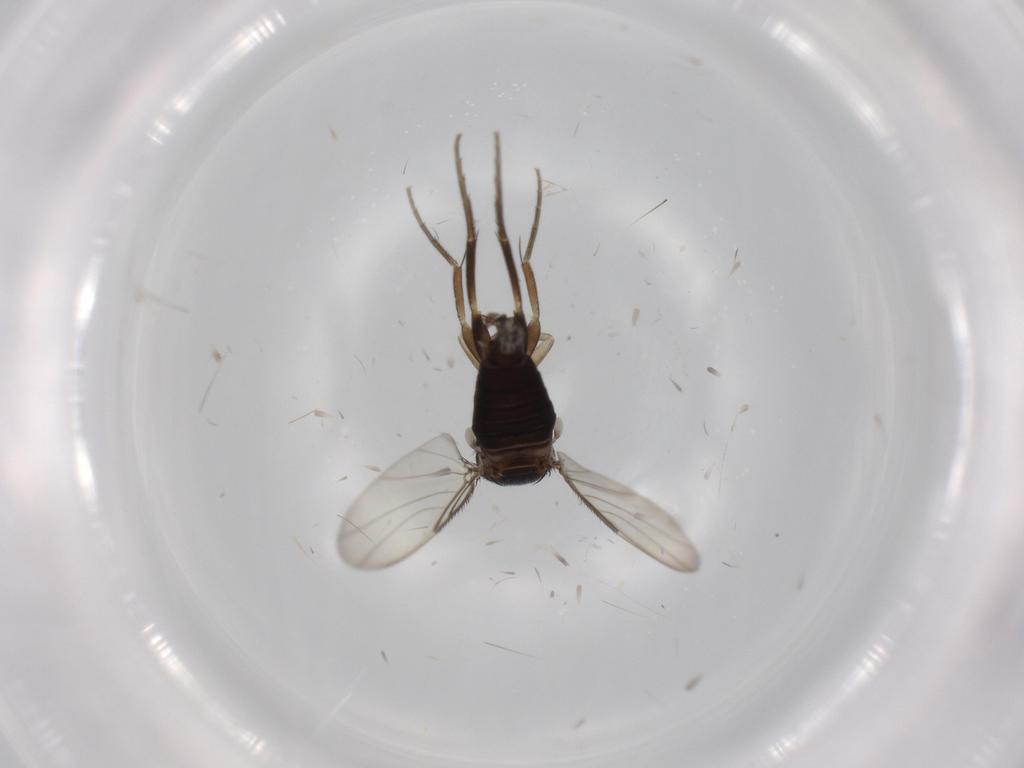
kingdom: Animalia
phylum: Arthropoda
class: Insecta
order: Diptera
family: Phoridae
